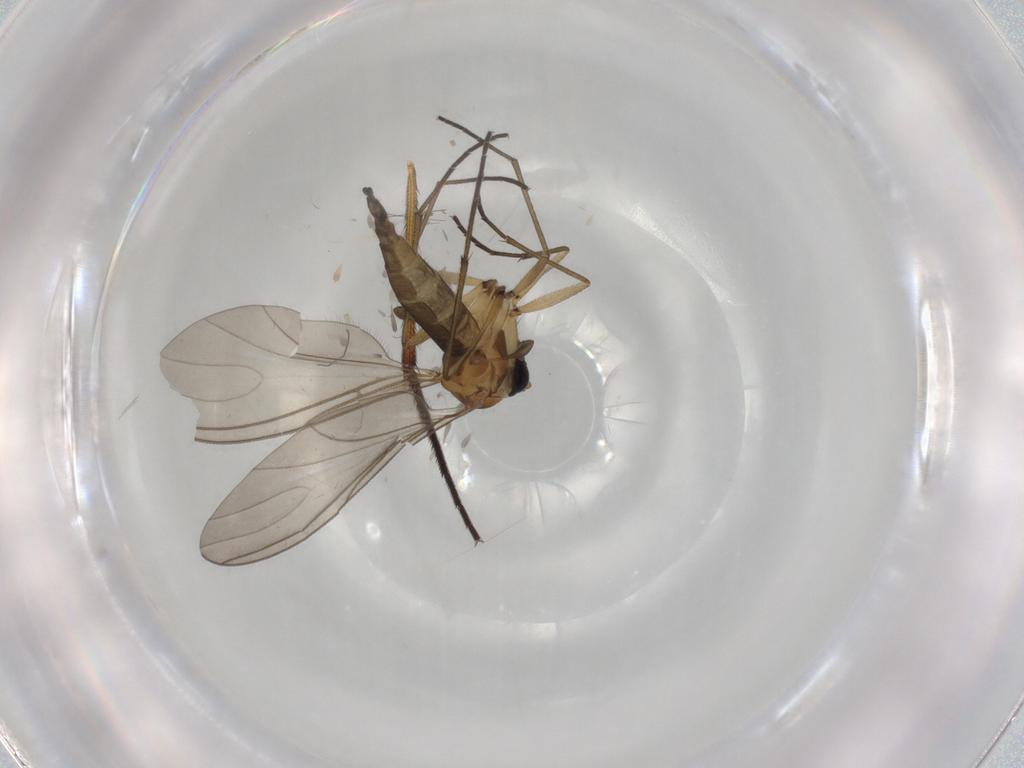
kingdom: Animalia
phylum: Arthropoda
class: Insecta
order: Diptera
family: Sciaridae
